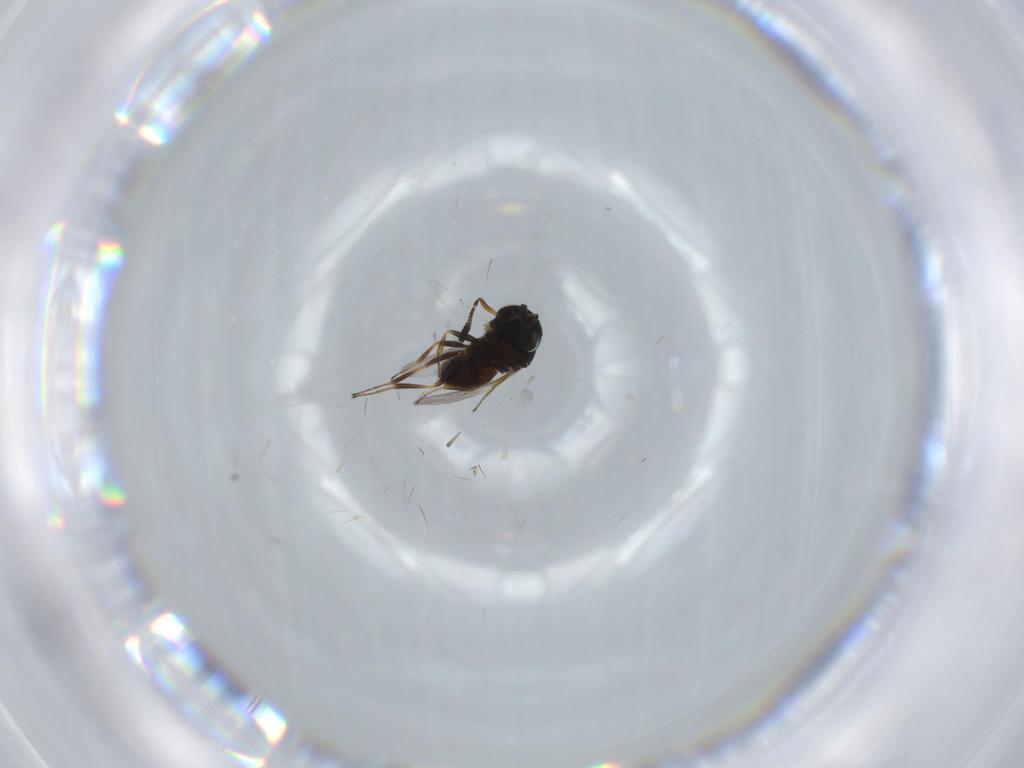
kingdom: Animalia
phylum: Arthropoda
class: Insecta
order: Hymenoptera
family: Scelionidae
